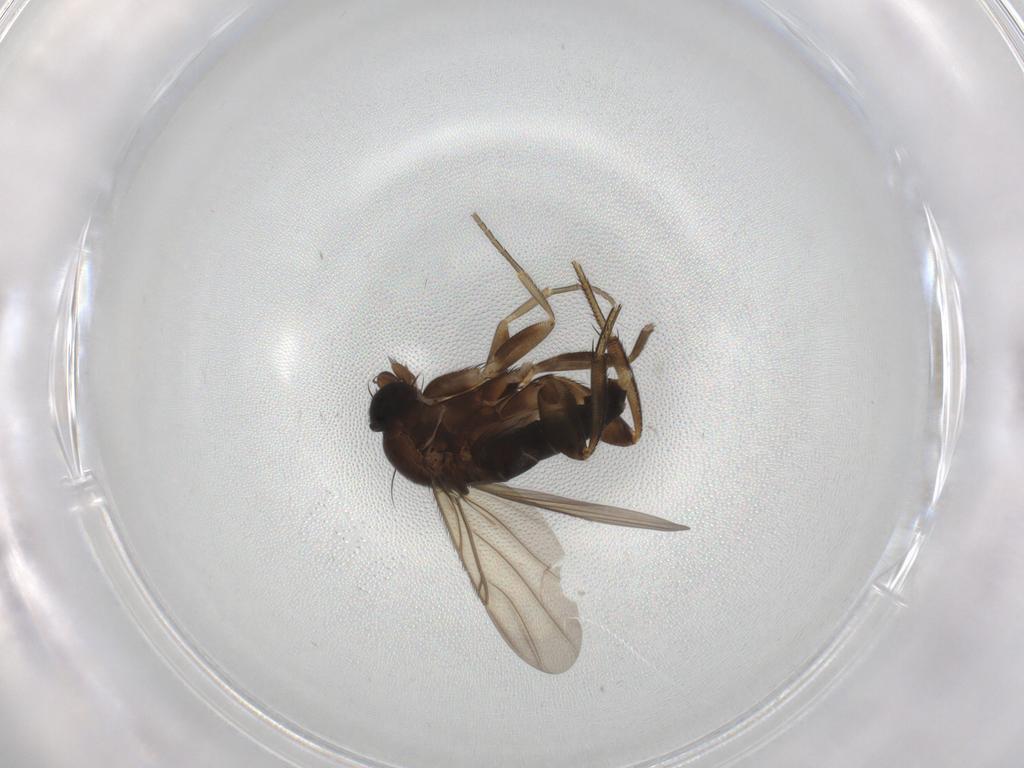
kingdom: Animalia
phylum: Arthropoda
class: Insecta
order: Diptera
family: Phoridae
